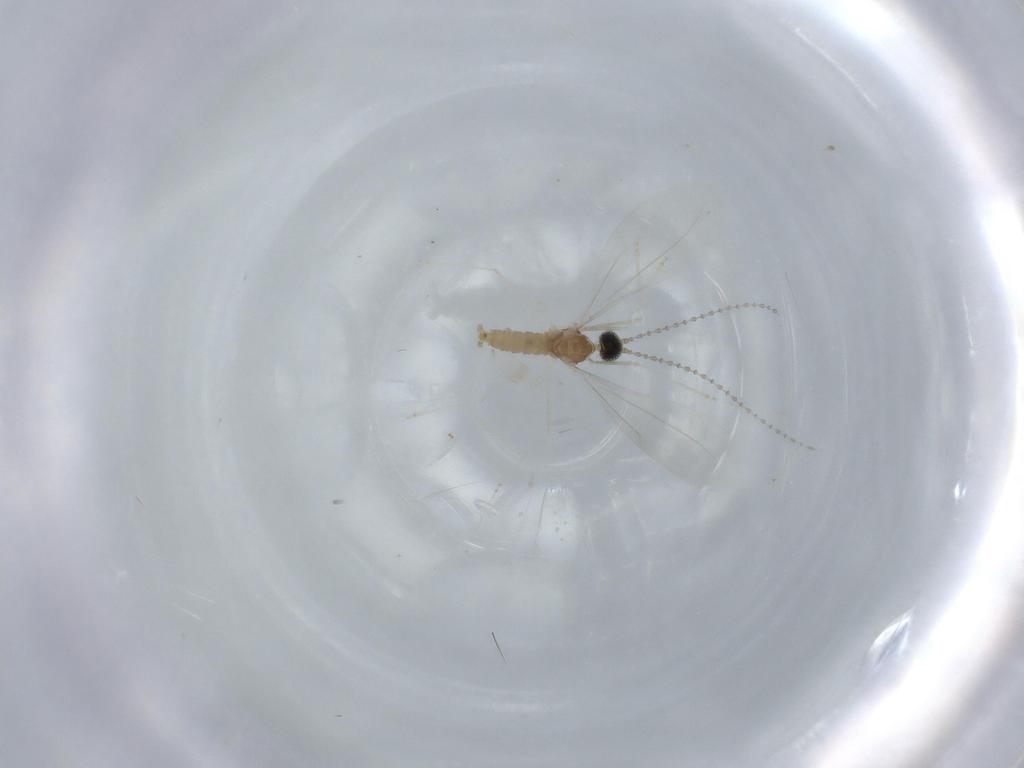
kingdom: Animalia
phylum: Arthropoda
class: Insecta
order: Diptera
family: Cecidomyiidae
